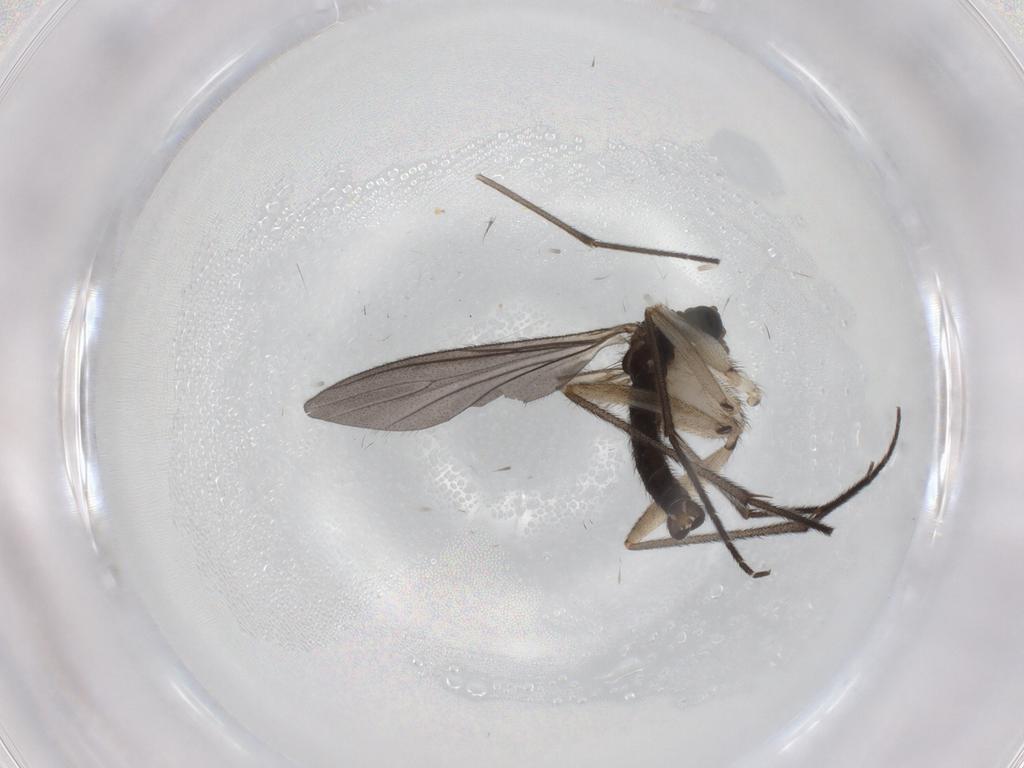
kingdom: Animalia
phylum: Arthropoda
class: Insecta
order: Diptera
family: Sciaridae
